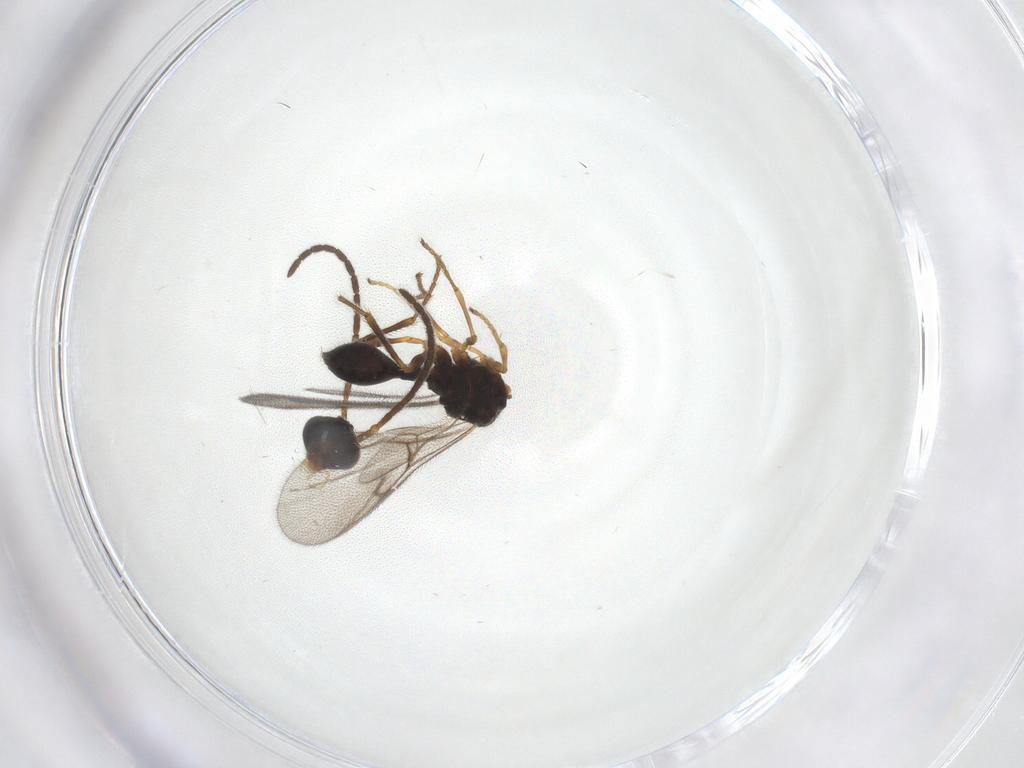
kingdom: Animalia
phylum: Arthropoda
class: Insecta
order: Hymenoptera
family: Diapriidae
